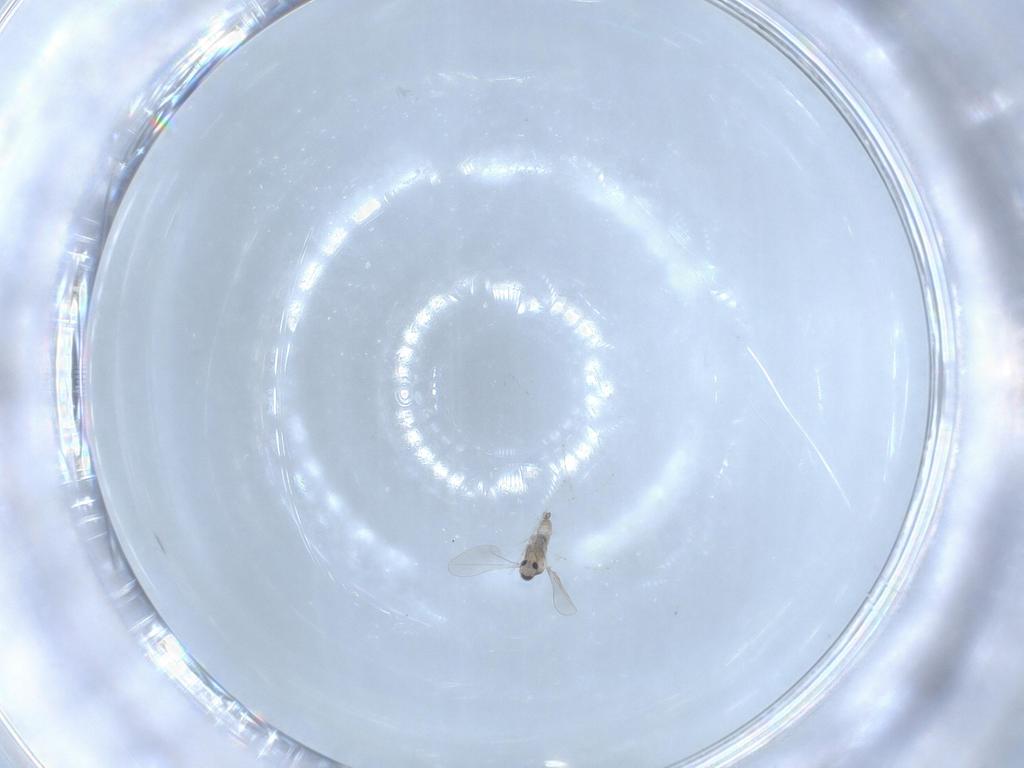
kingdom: Animalia
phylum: Arthropoda
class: Insecta
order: Diptera
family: Cecidomyiidae
